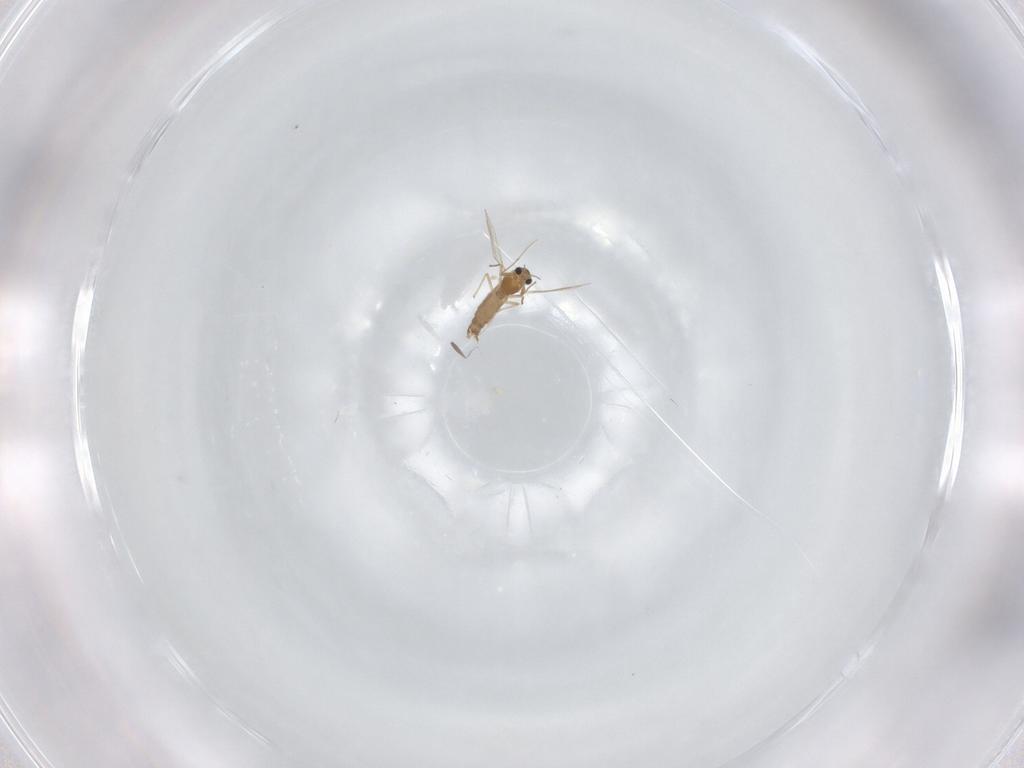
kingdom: Animalia
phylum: Arthropoda
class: Insecta
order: Diptera
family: Chironomidae
